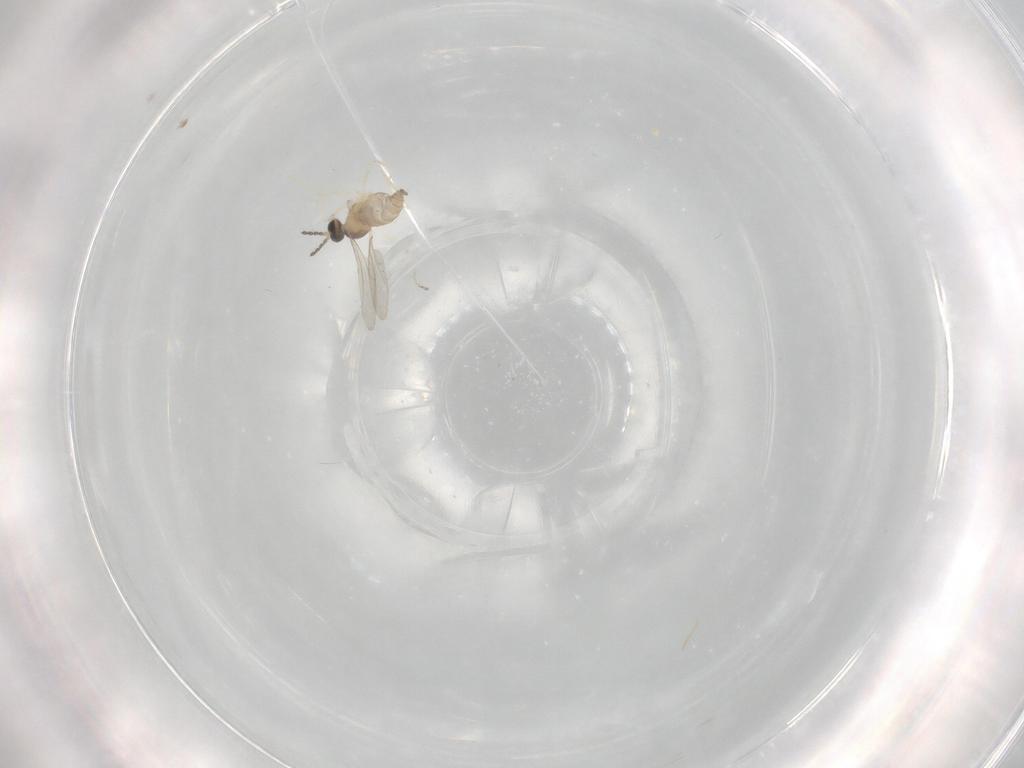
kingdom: Animalia
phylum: Arthropoda
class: Insecta
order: Diptera
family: Cecidomyiidae
